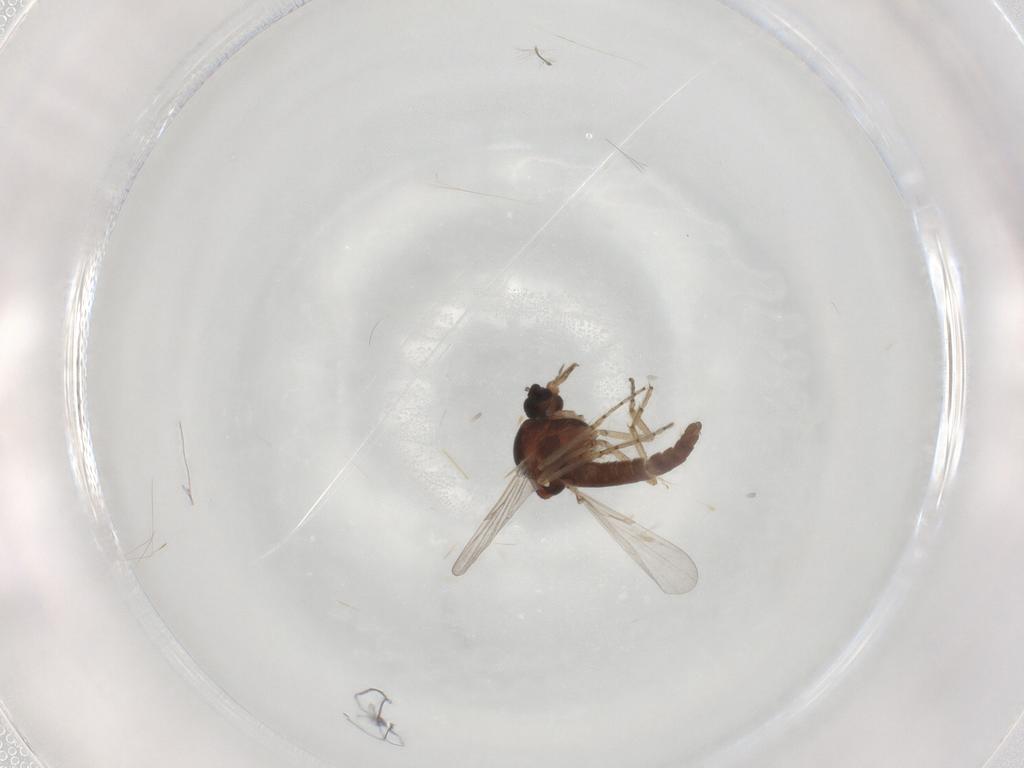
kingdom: Animalia
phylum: Arthropoda
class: Insecta
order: Diptera
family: Ceratopogonidae
